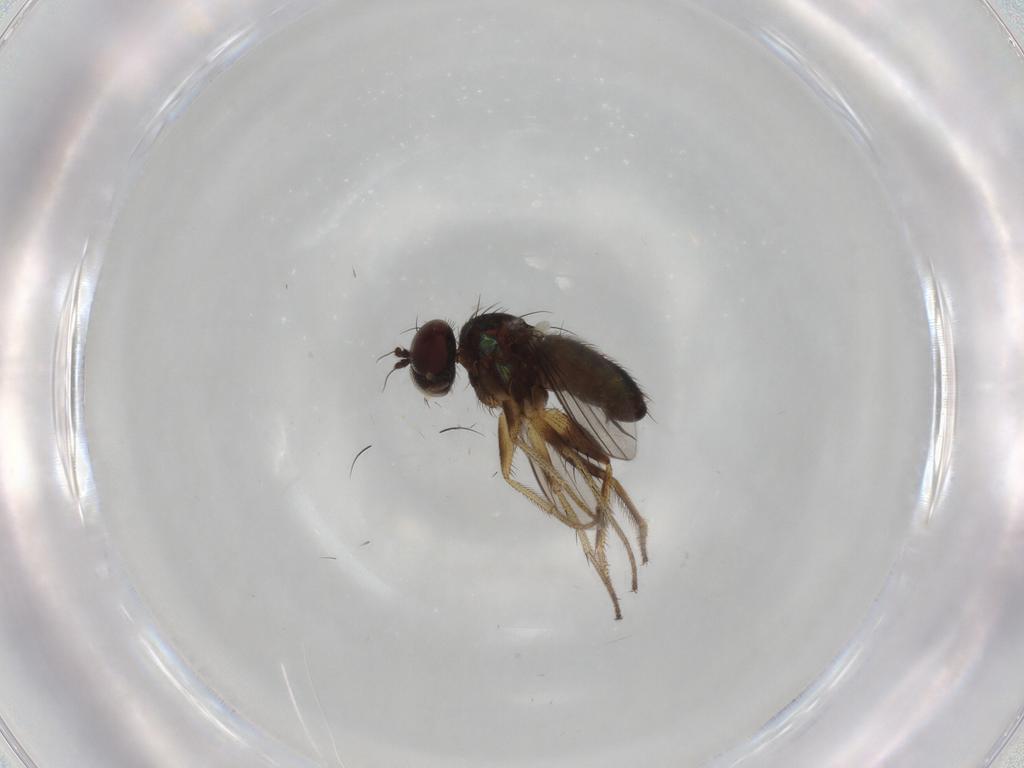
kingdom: Animalia
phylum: Arthropoda
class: Insecta
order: Diptera
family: Dolichopodidae
